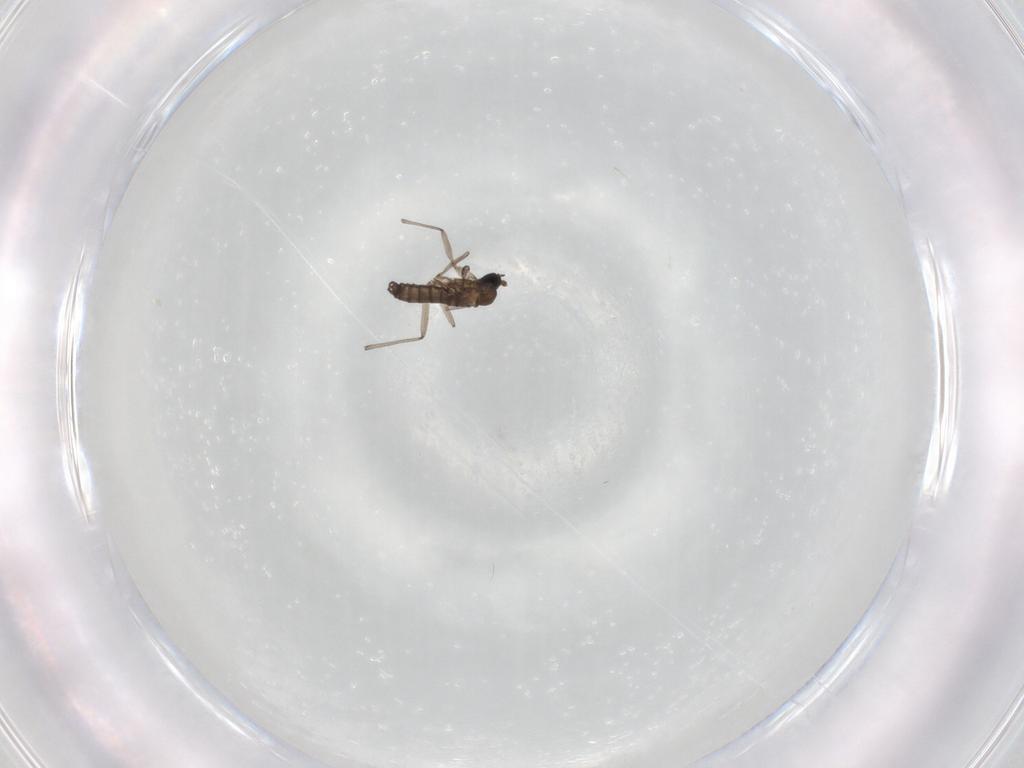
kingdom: Animalia
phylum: Arthropoda
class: Insecta
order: Diptera
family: Sciaridae
